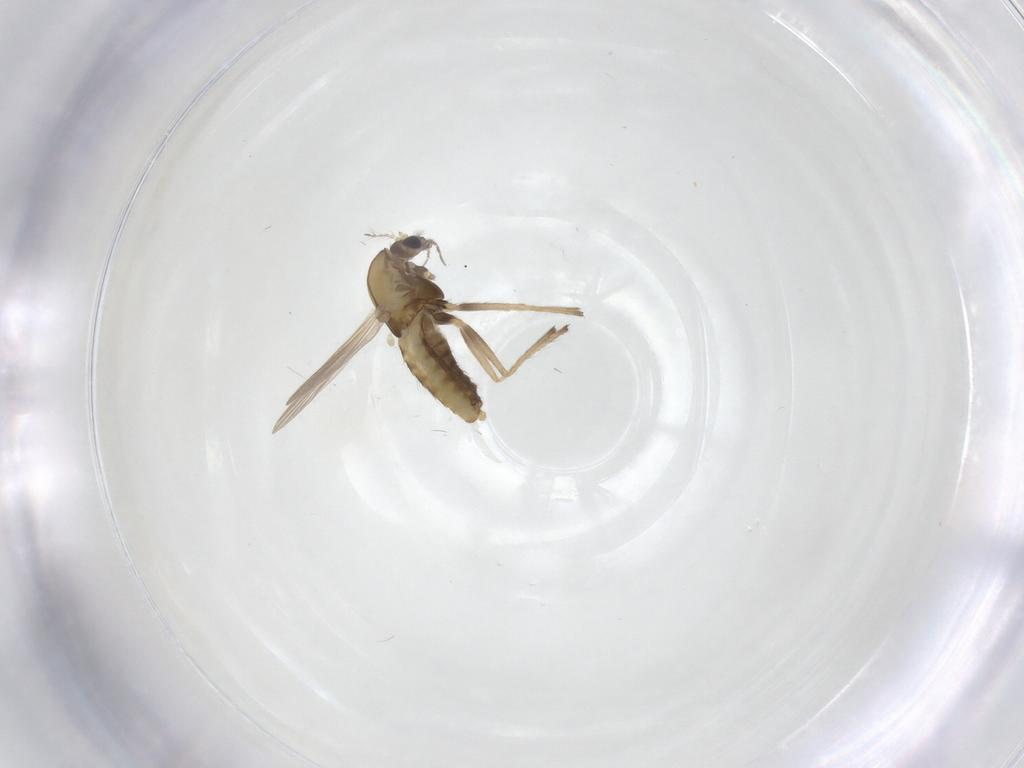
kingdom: Animalia
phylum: Arthropoda
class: Insecta
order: Diptera
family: Chironomidae
